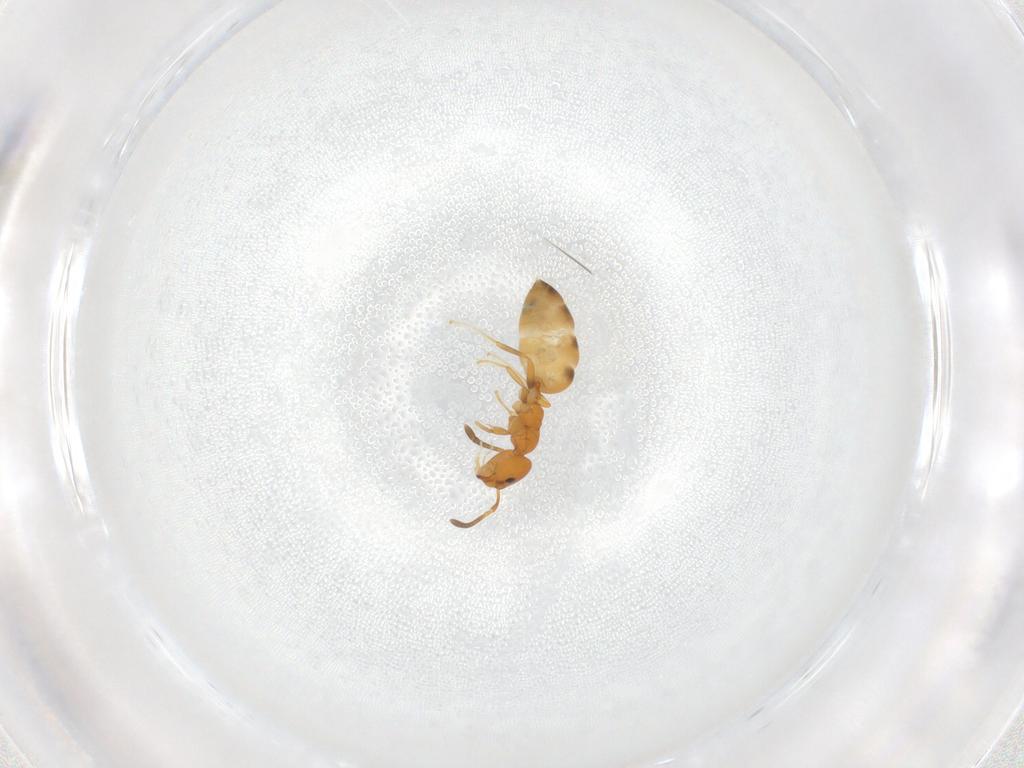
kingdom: Animalia
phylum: Arthropoda
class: Insecta
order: Hymenoptera
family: Formicidae
